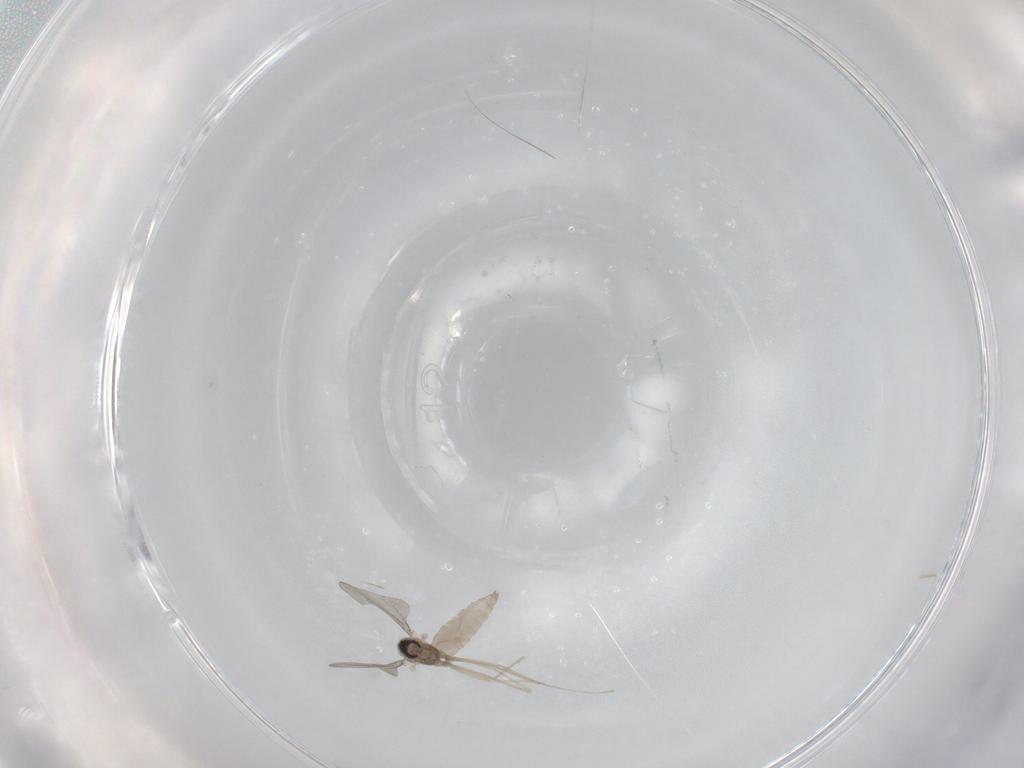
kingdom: Animalia
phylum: Arthropoda
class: Insecta
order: Diptera
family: Cecidomyiidae
